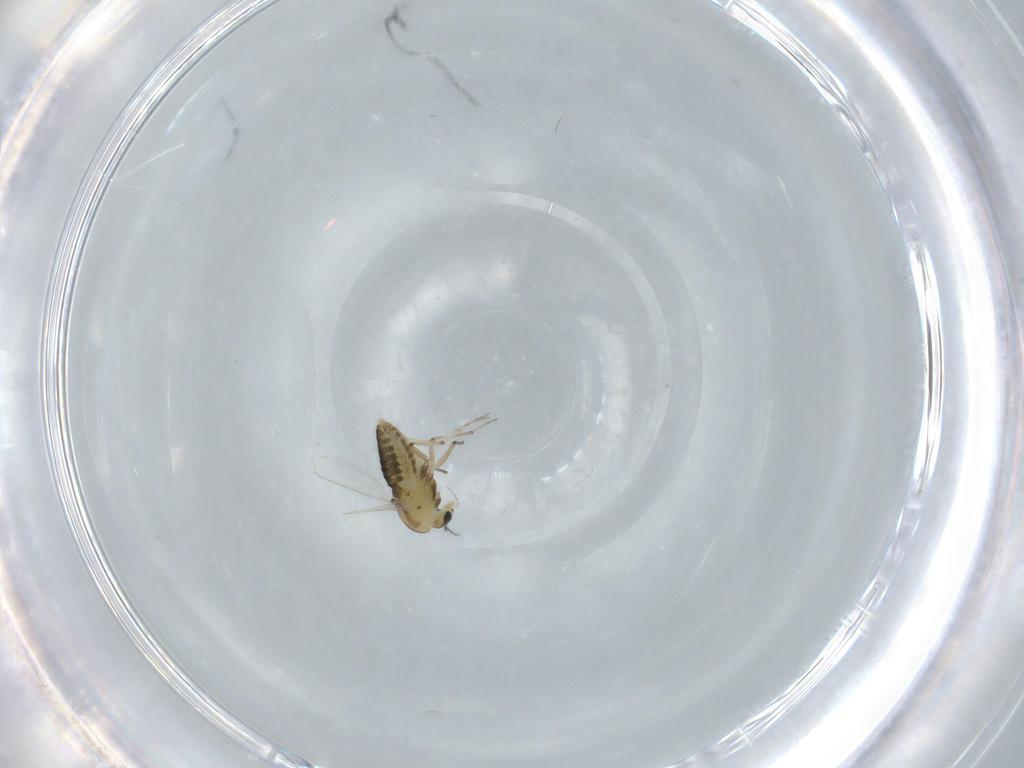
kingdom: Animalia
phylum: Arthropoda
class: Insecta
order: Diptera
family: Chironomidae
